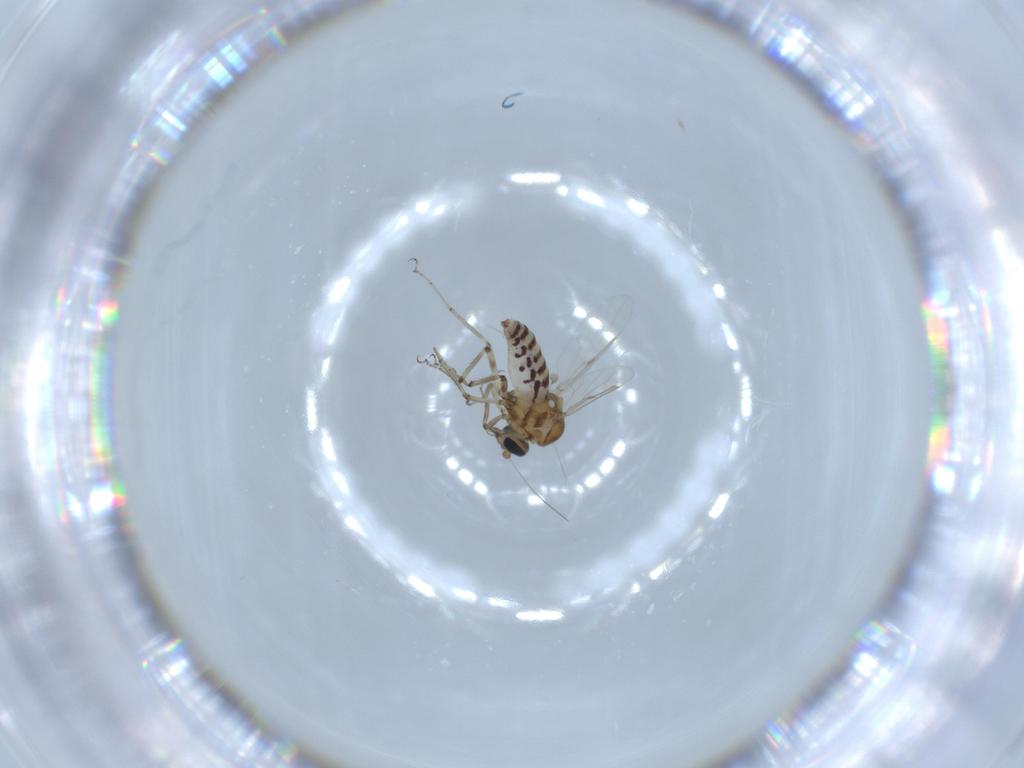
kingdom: Animalia
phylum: Arthropoda
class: Insecta
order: Diptera
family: Ceratopogonidae
